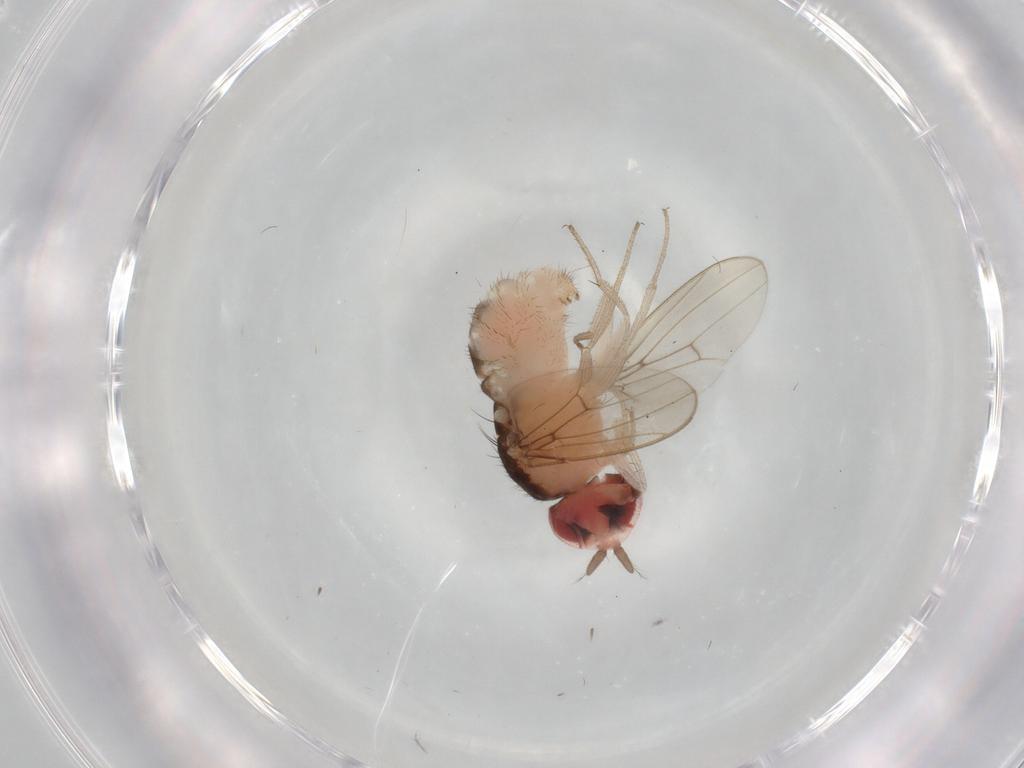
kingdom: Animalia
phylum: Arthropoda
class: Insecta
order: Diptera
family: Drosophilidae
